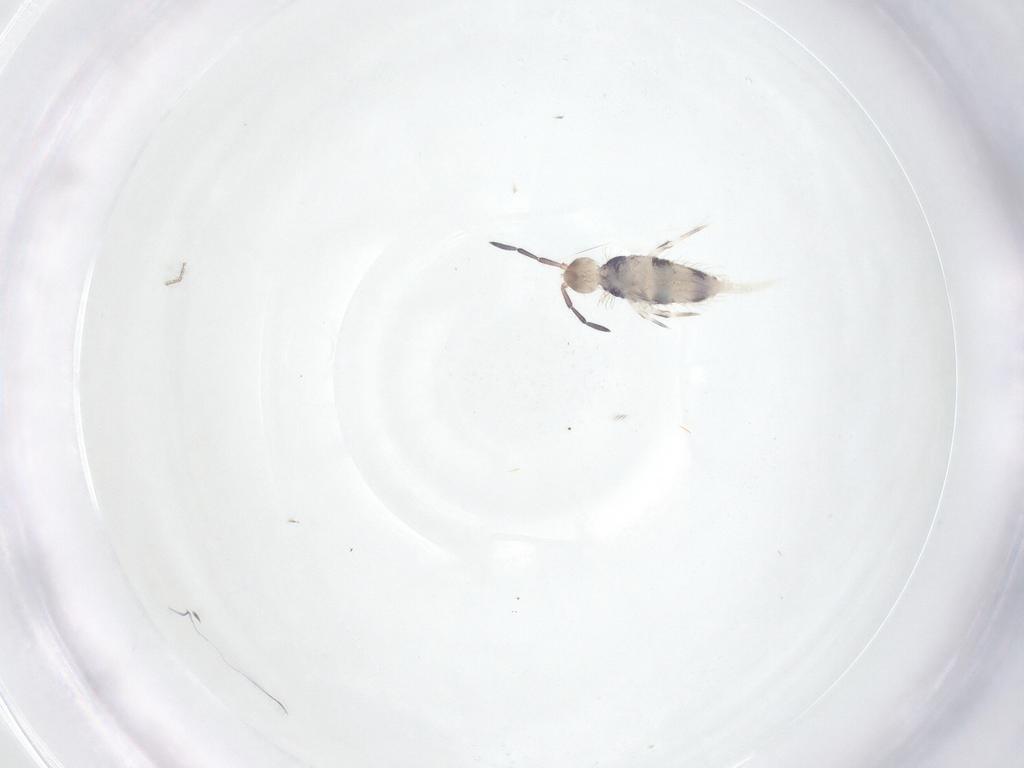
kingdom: Animalia
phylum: Arthropoda
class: Collembola
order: Entomobryomorpha
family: Entomobryidae
